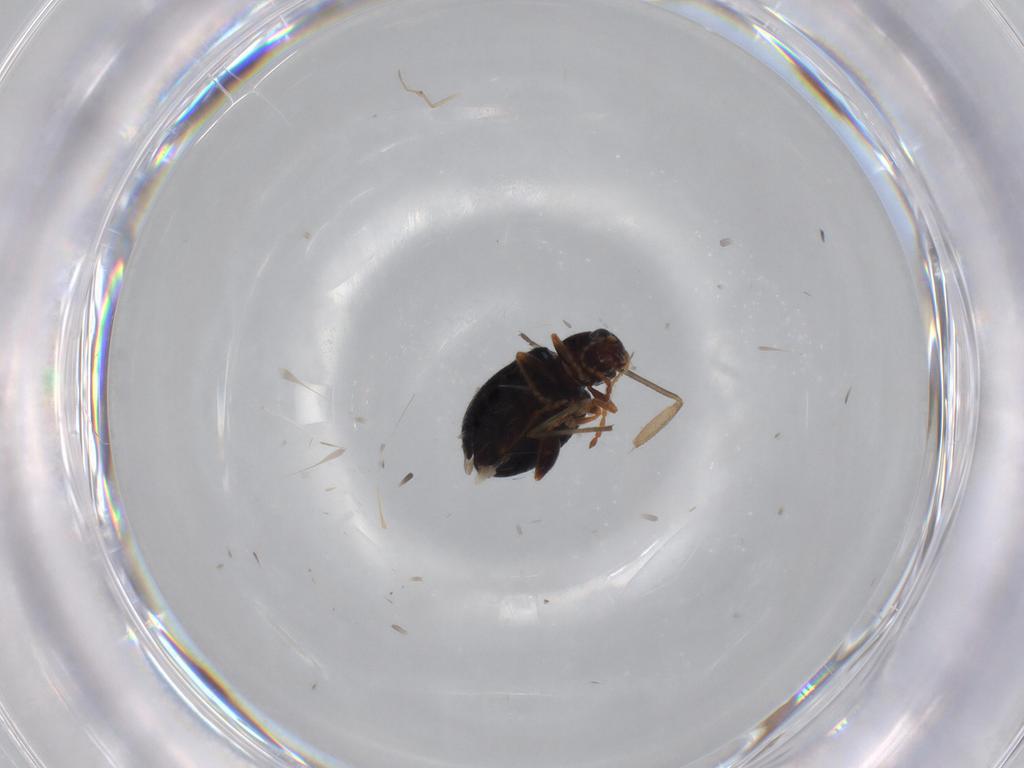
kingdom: Animalia
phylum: Arthropoda
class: Insecta
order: Coleoptera
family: Chrysomelidae
